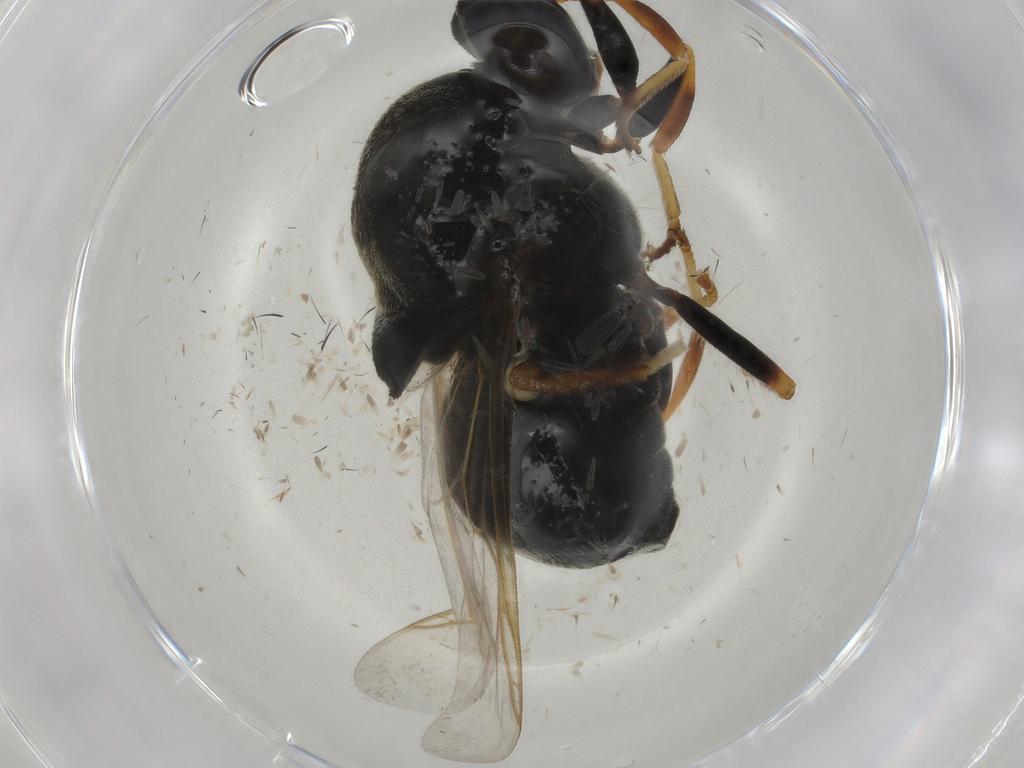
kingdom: Animalia
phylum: Arthropoda
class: Insecta
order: Diptera
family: Stratiomyidae
